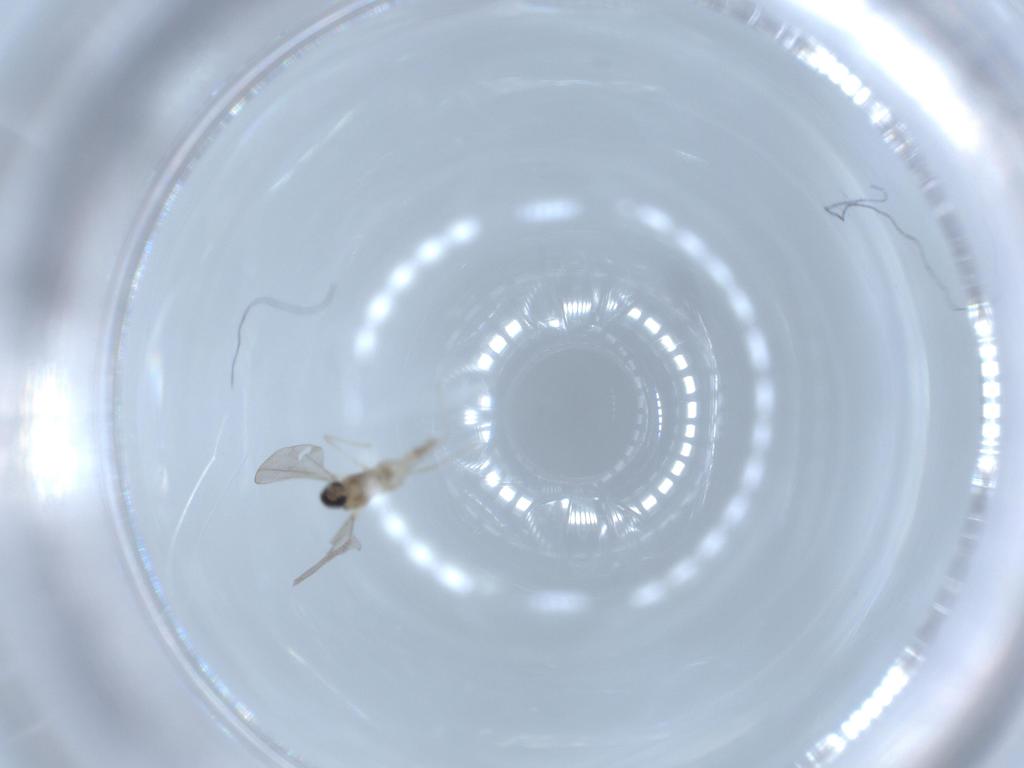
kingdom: Animalia
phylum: Arthropoda
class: Insecta
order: Diptera
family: Cecidomyiidae
